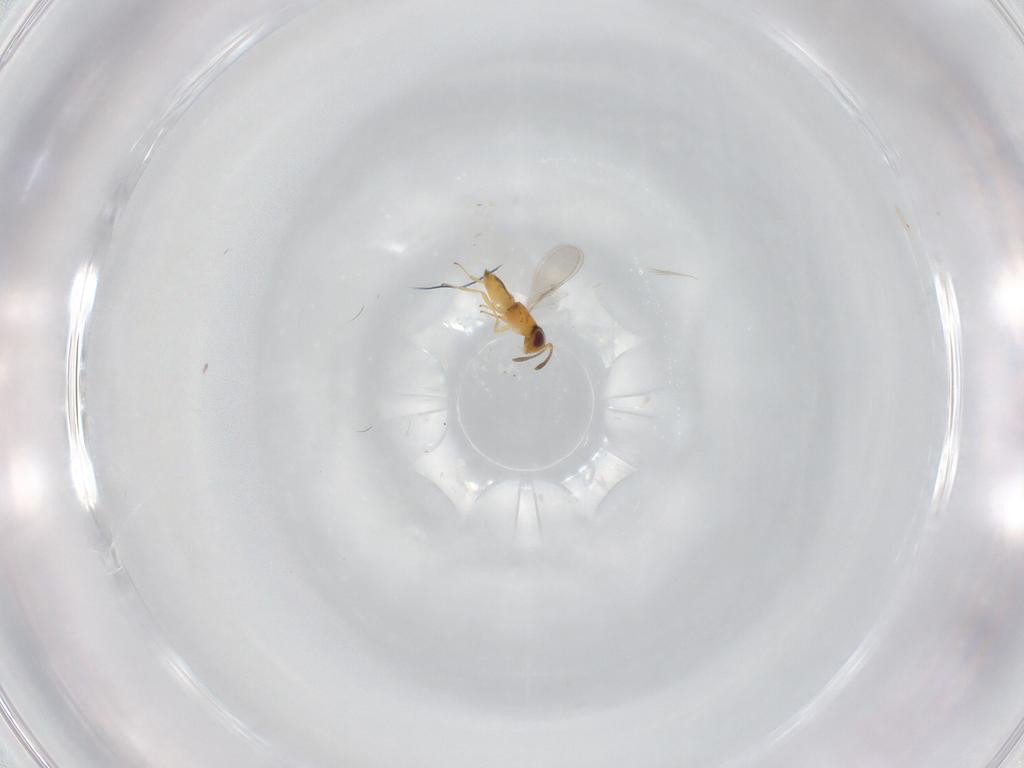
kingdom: Animalia
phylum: Arthropoda
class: Insecta
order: Hymenoptera
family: Encyrtidae
